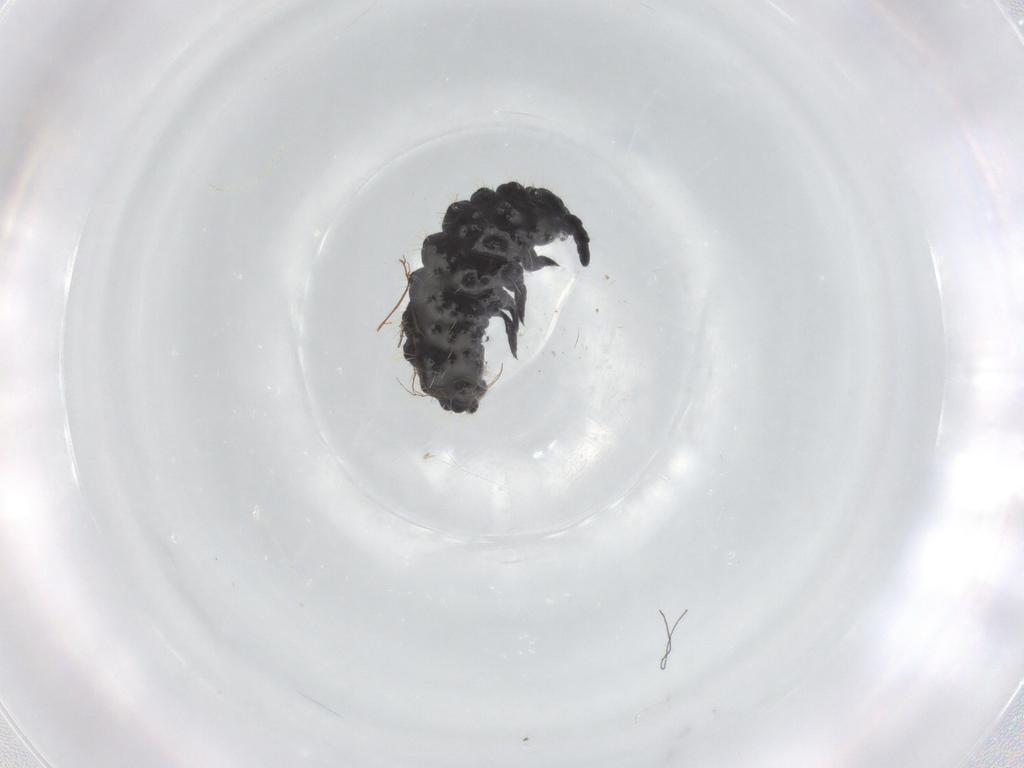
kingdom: Animalia
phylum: Arthropoda
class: Collembola
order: Poduromorpha
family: Neanuridae
